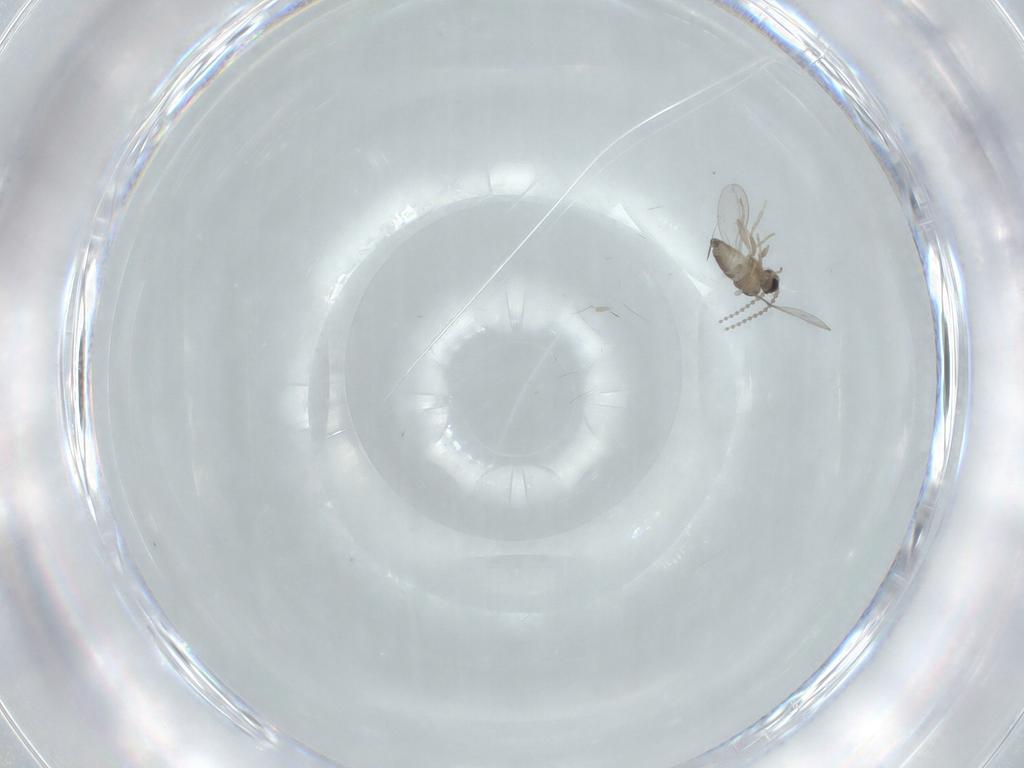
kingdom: Animalia
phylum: Arthropoda
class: Insecta
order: Diptera
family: Cecidomyiidae
